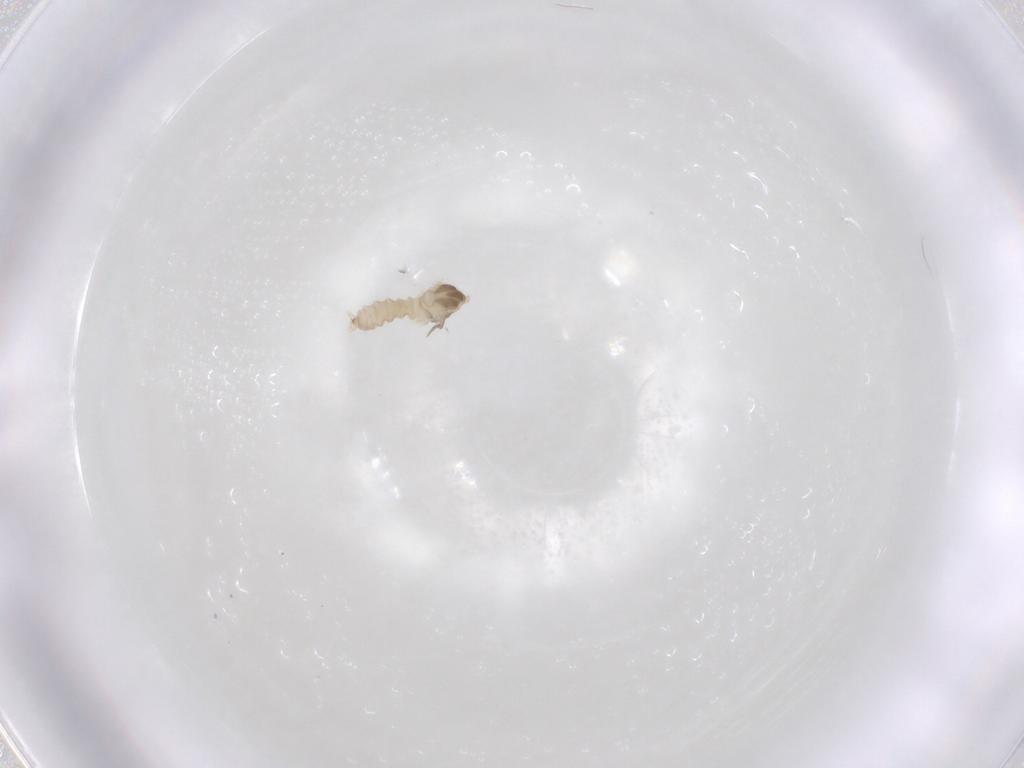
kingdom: Animalia
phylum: Arthropoda
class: Insecta
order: Diptera
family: Cecidomyiidae
